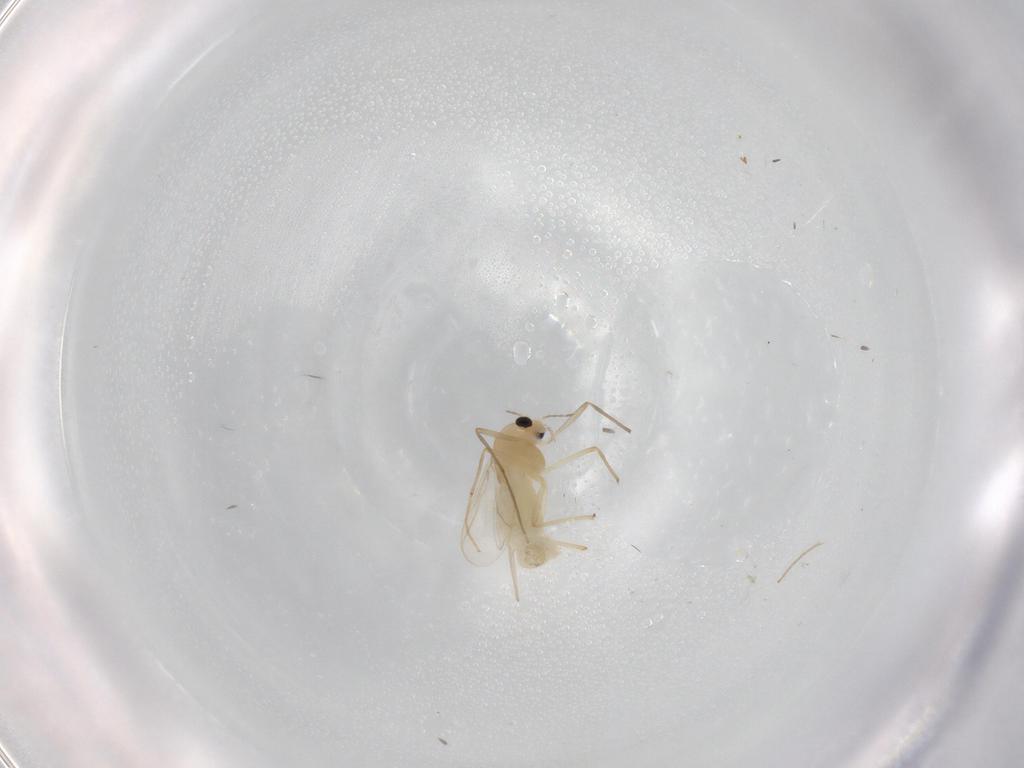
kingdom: Animalia
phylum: Arthropoda
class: Insecta
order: Diptera
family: Chironomidae
